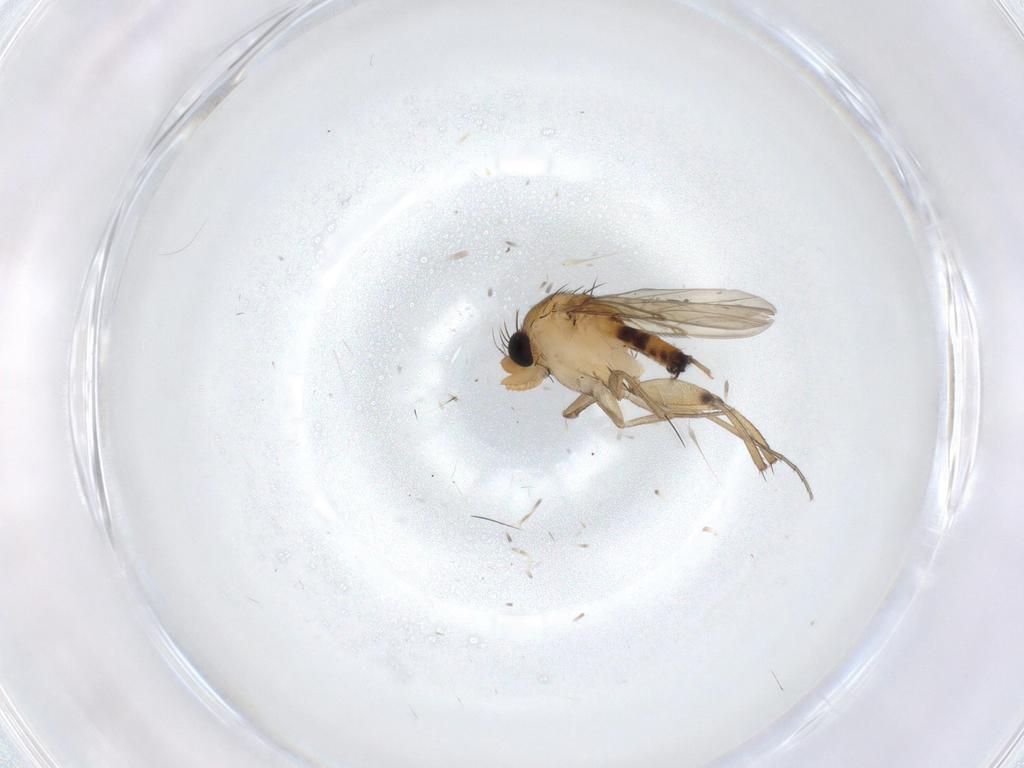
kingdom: Animalia
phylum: Arthropoda
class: Insecta
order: Diptera
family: Phoridae
